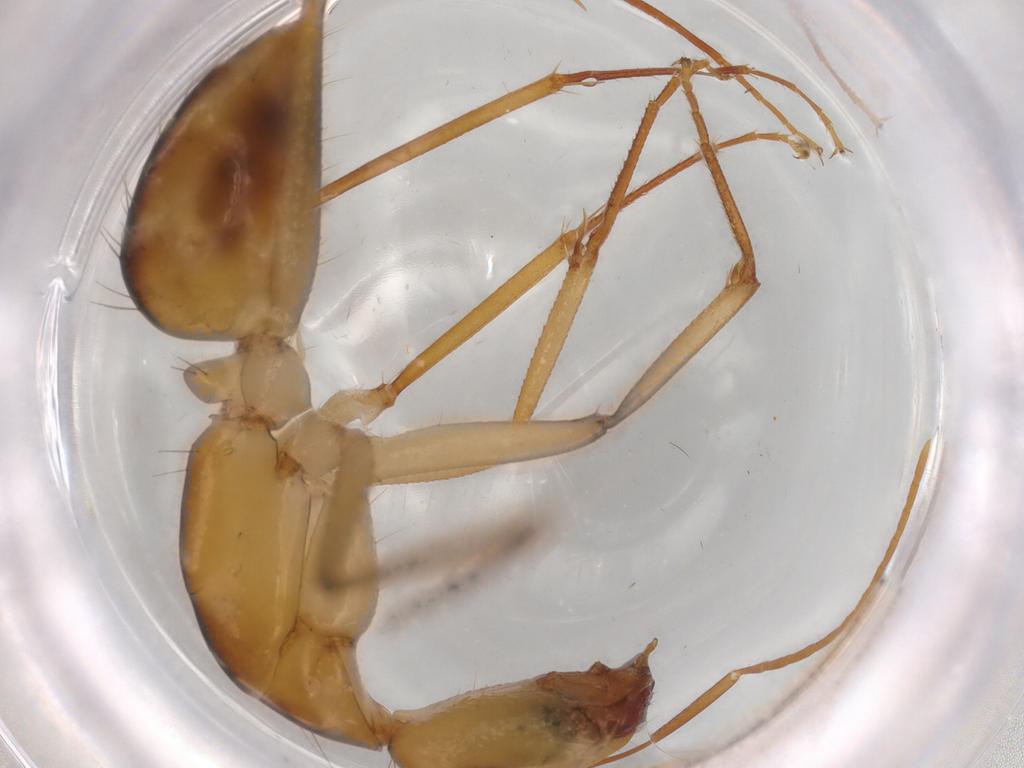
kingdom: Animalia
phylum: Arthropoda
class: Insecta
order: Hymenoptera
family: Formicidae
